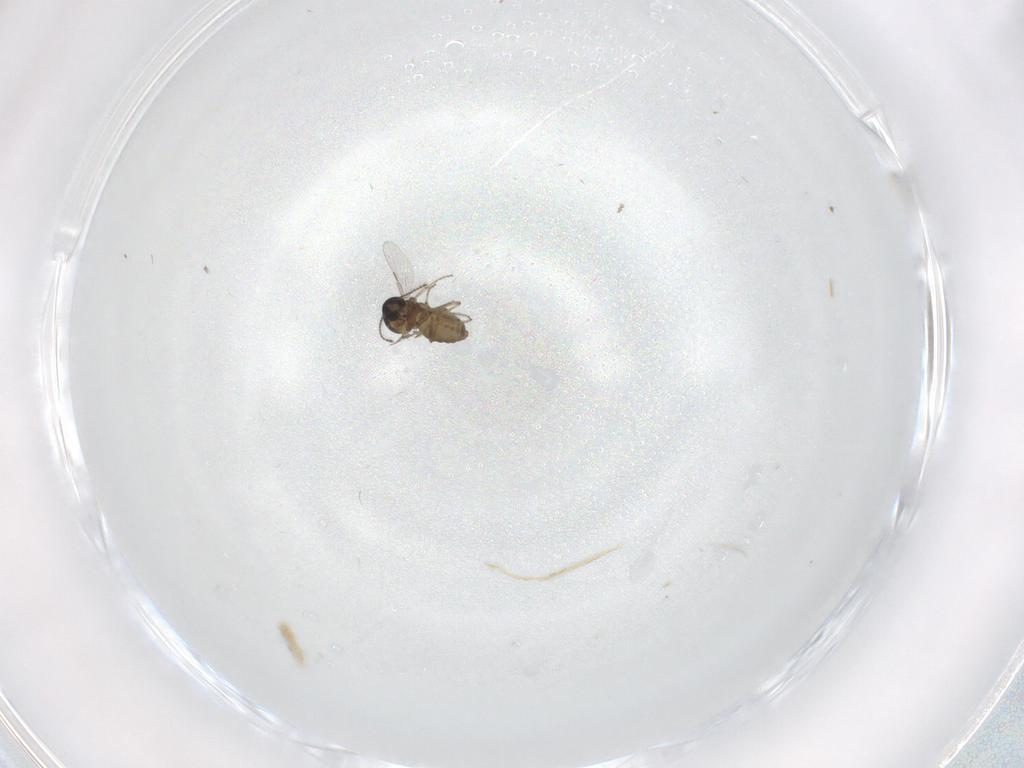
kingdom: Animalia
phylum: Arthropoda
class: Insecta
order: Diptera
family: Ceratopogonidae
